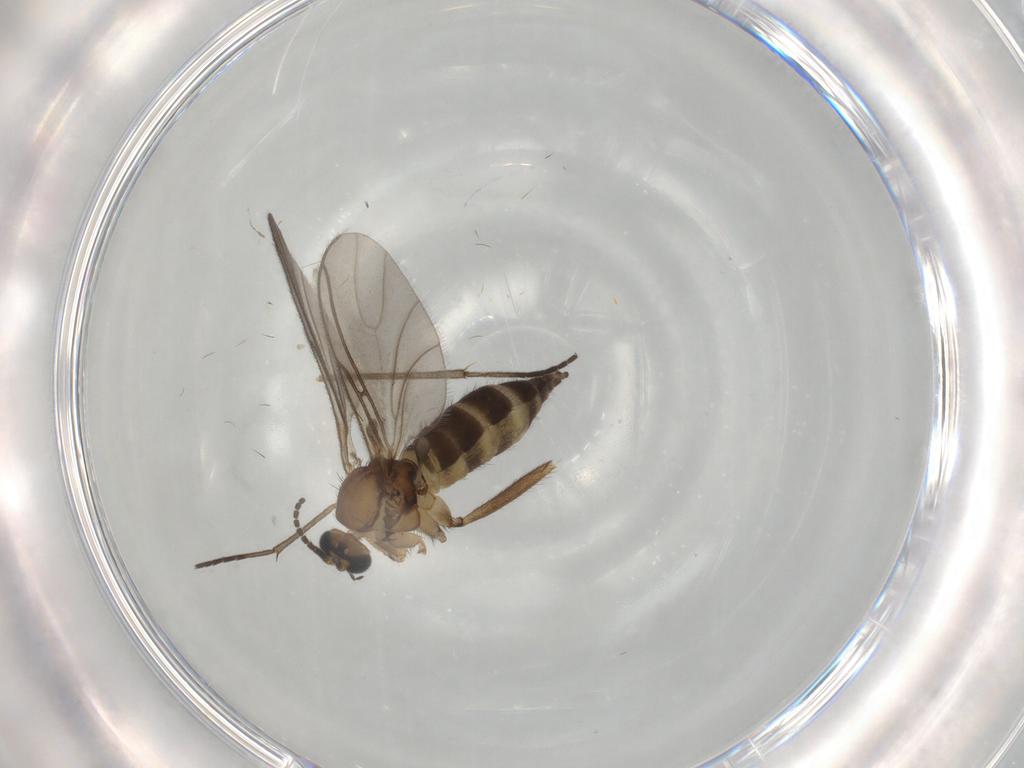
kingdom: Animalia
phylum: Arthropoda
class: Insecta
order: Diptera
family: Sciaridae
